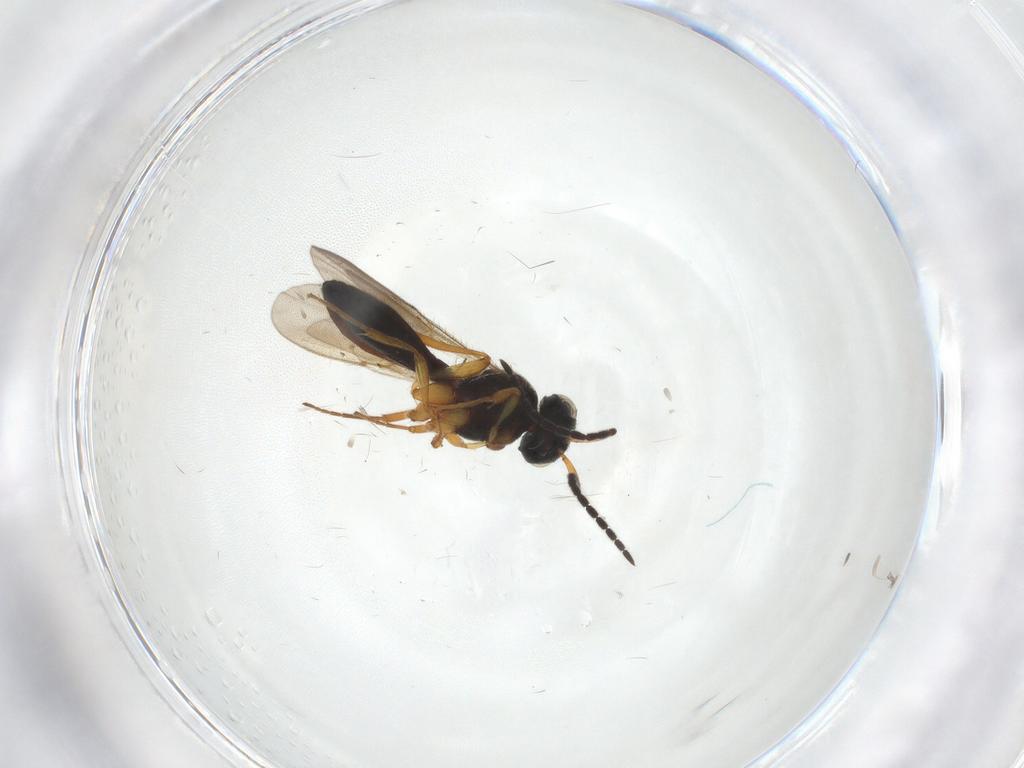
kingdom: Animalia
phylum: Arthropoda
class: Insecta
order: Hymenoptera
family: Scelionidae
